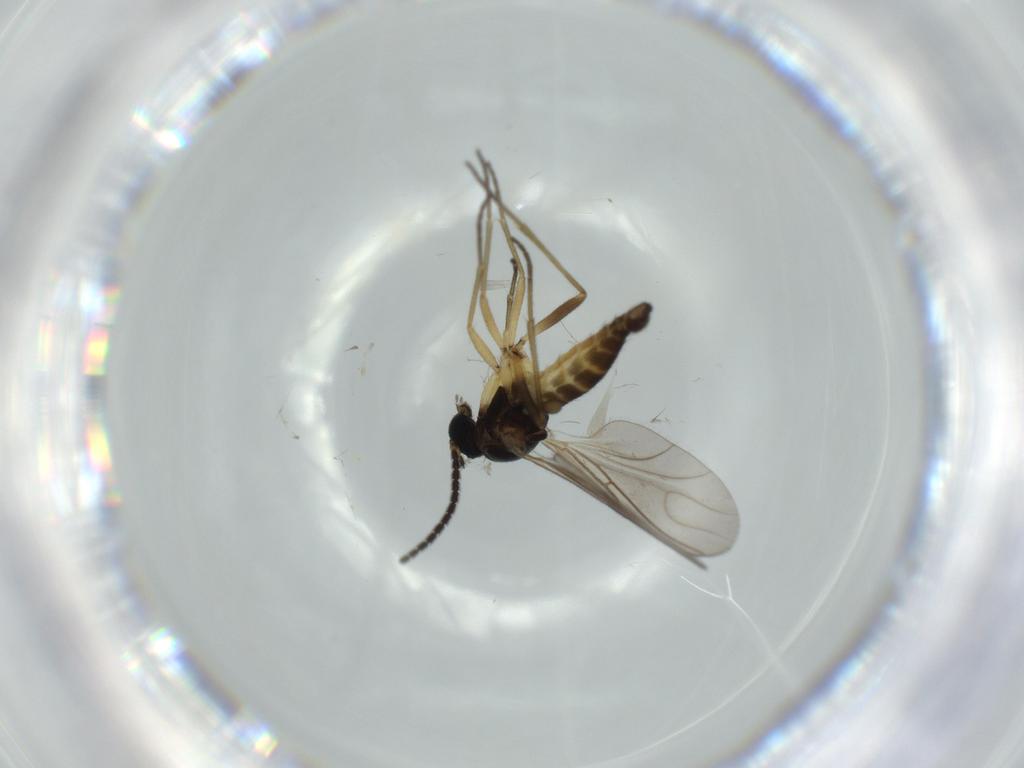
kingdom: Animalia
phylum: Arthropoda
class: Insecta
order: Diptera
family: Sciaridae
